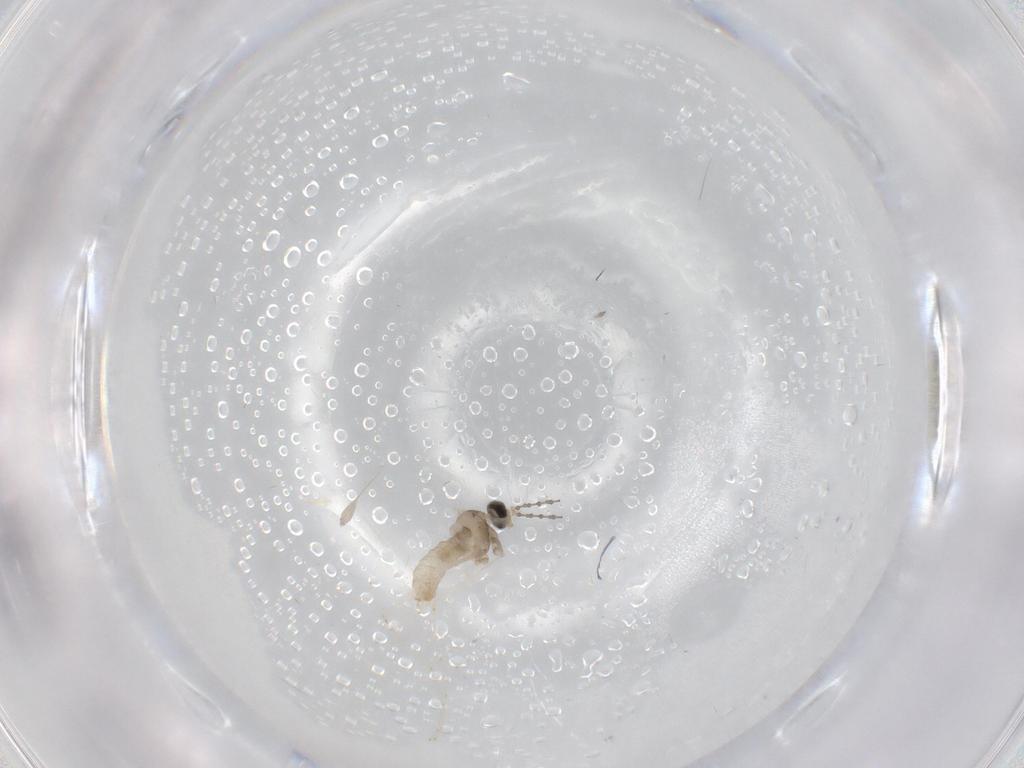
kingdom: Animalia
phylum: Arthropoda
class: Insecta
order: Diptera
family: Cecidomyiidae
